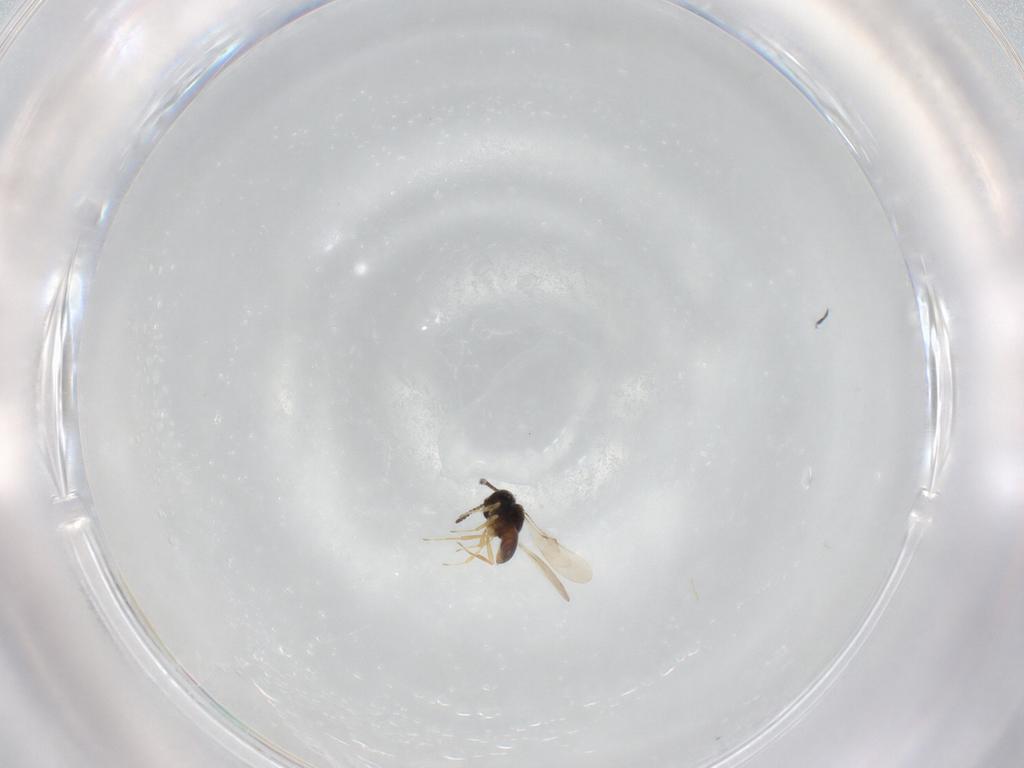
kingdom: Animalia
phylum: Arthropoda
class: Insecta
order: Hymenoptera
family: Scelionidae
